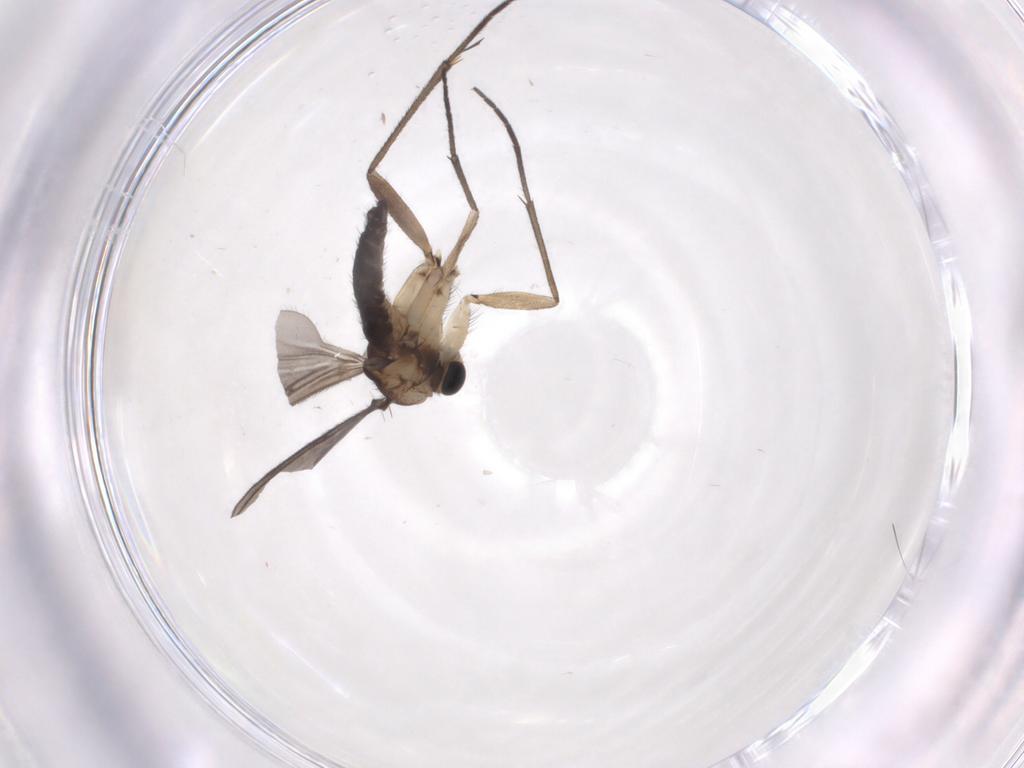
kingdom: Animalia
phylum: Arthropoda
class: Insecta
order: Diptera
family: Sciaridae
